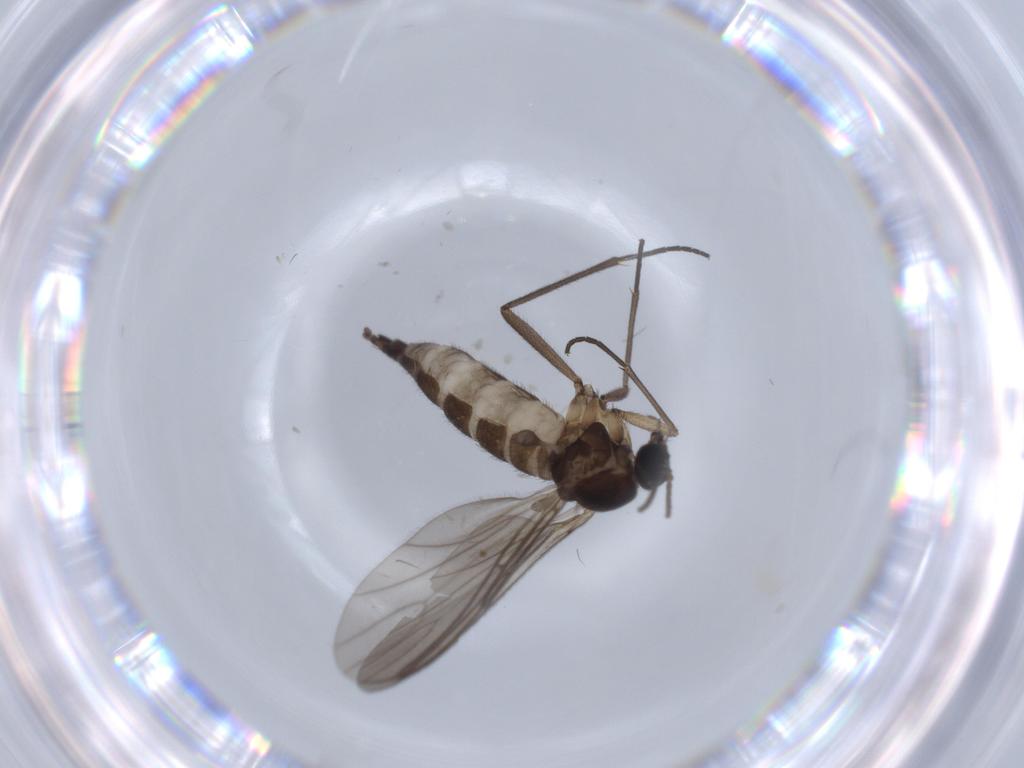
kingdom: Animalia
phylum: Arthropoda
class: Insecta
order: Diptera
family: Sciaridae
